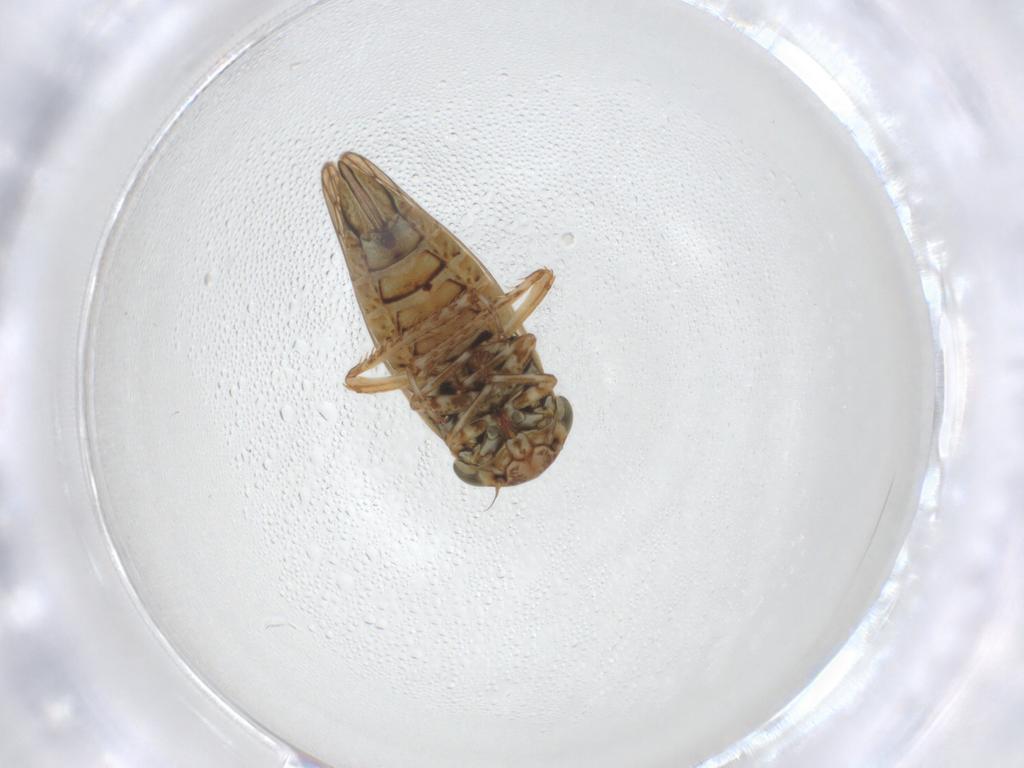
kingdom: Animalia
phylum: Arthropoda
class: Insecta
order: Hemiptera
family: Cicadellidae
